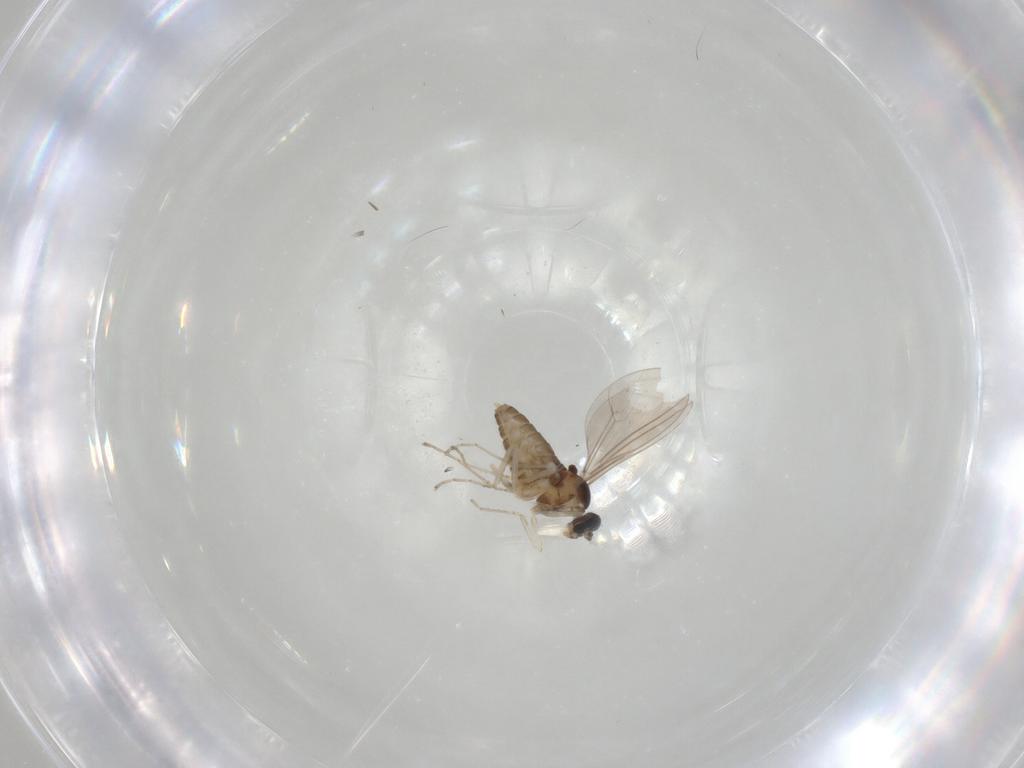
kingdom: Animalia
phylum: Arthropoda
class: Insecta
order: Diptera
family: Cecidomyiidae
